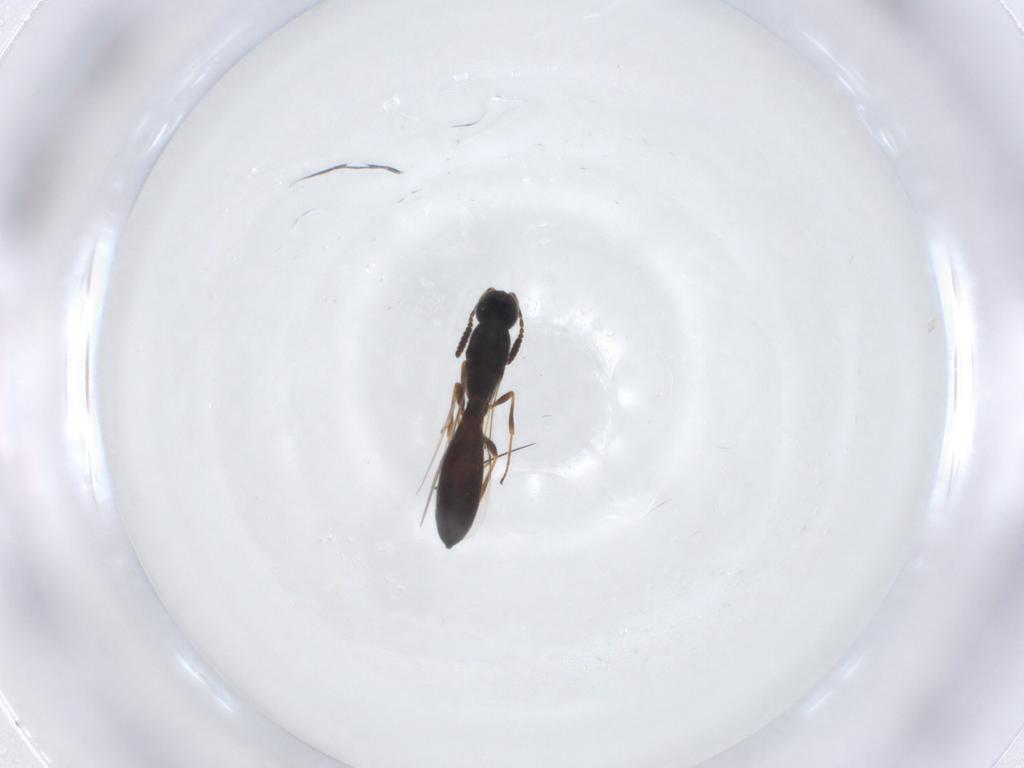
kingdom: Animalia
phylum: Arthropoda
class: Insecta
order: Hymenoptera
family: Scelionidae
